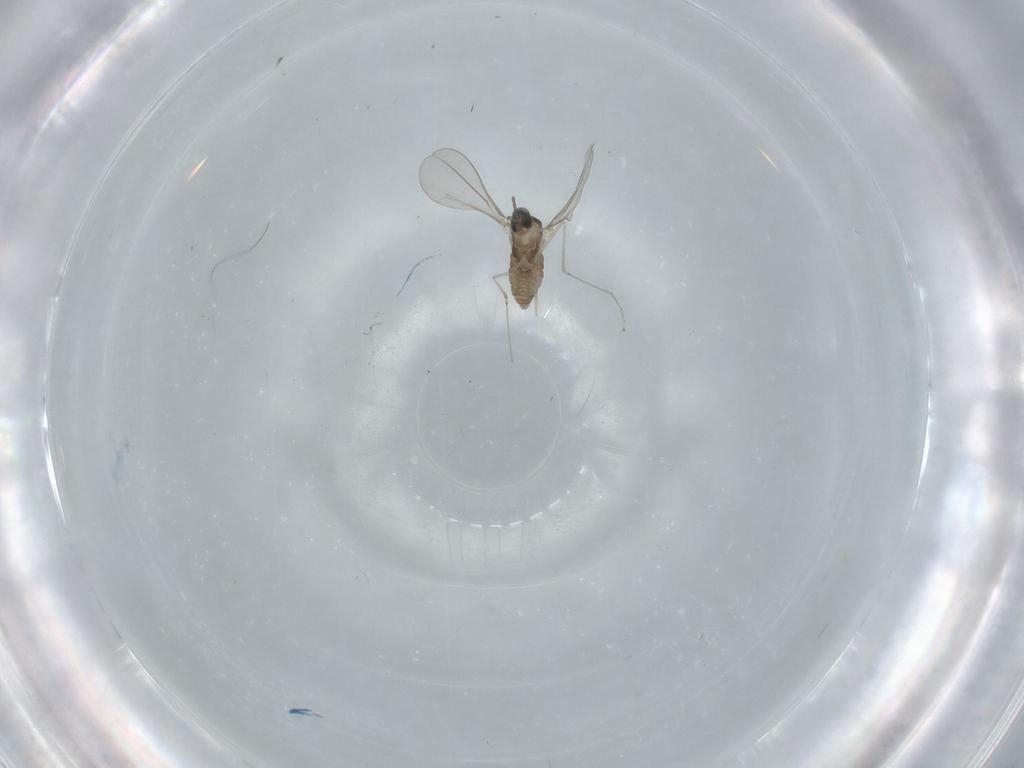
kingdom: Animalia
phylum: Arthropoda
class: Insecta
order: Diptera
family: Cecidomyiidae
